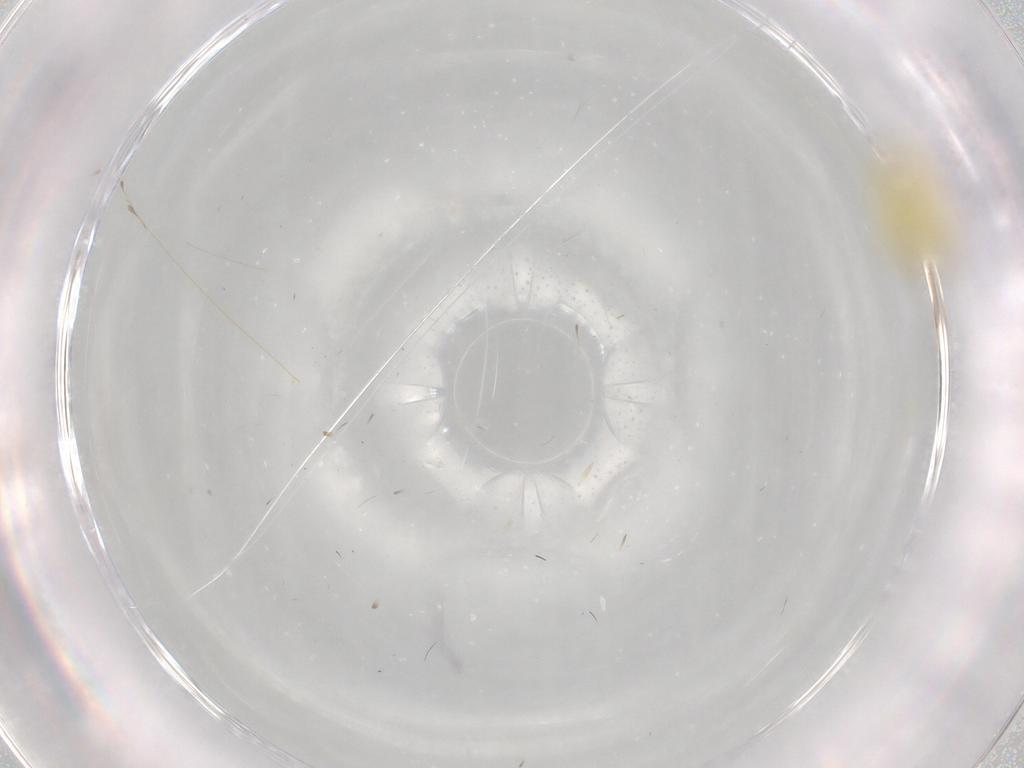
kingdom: Animalia
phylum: Arthropoda
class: Insecta
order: Hemiptera
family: Aleyrodidae
